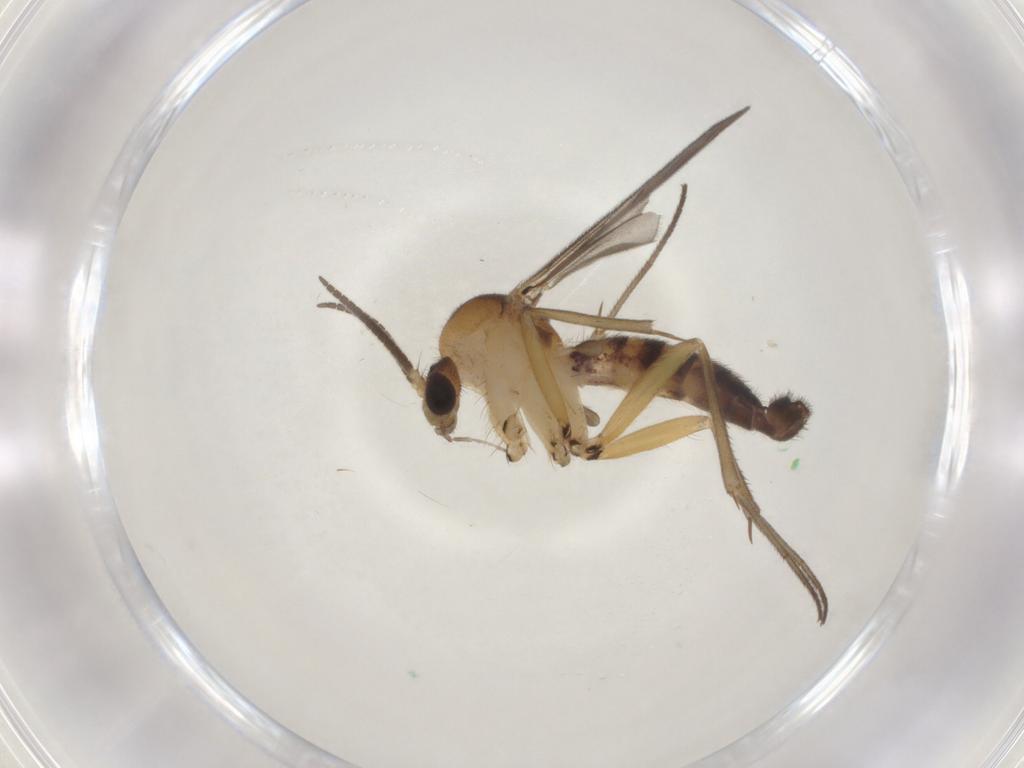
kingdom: Animalia
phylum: Arthropoda
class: Insecta
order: Diptera
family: Mycetophilidae
